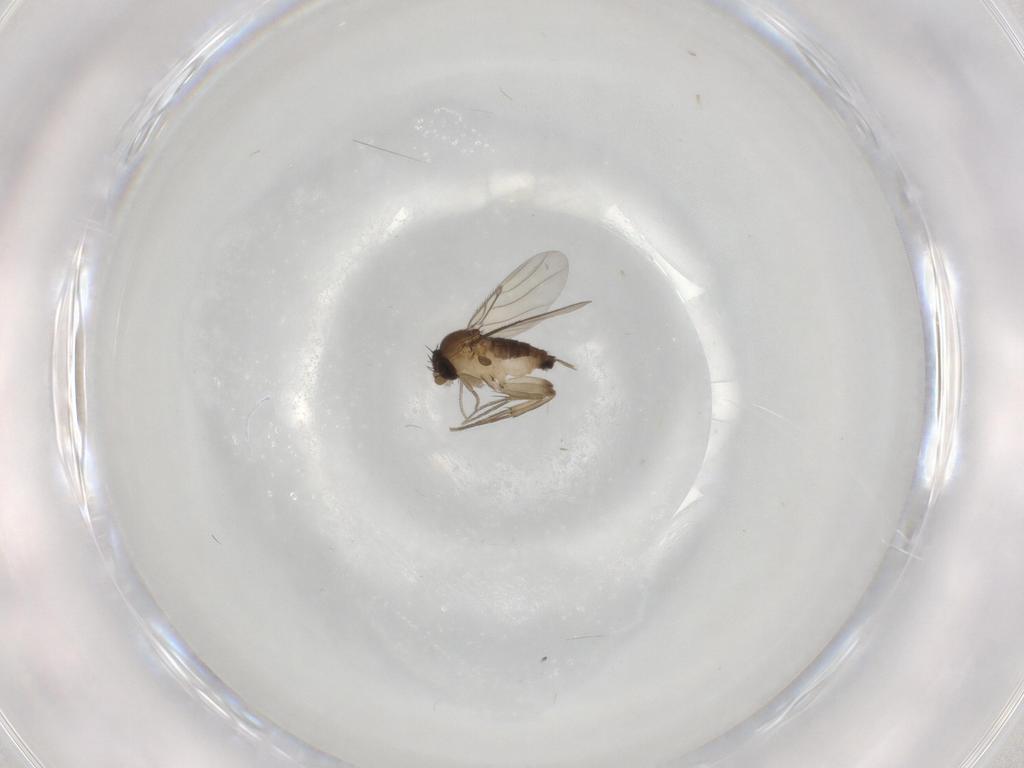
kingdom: Animalia
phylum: Arthropoda
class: Insecta
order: Diptera
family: Phoridae
